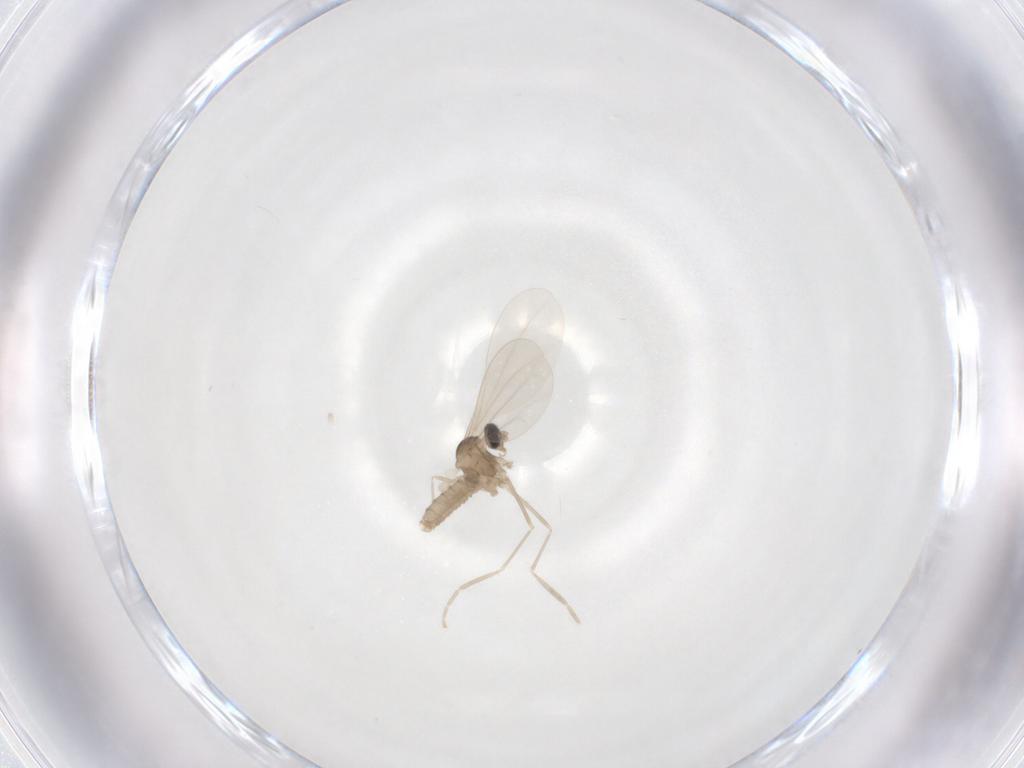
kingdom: Animalia
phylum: Arthropoda
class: Insecta
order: Diptera
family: Cecidomyiidae
